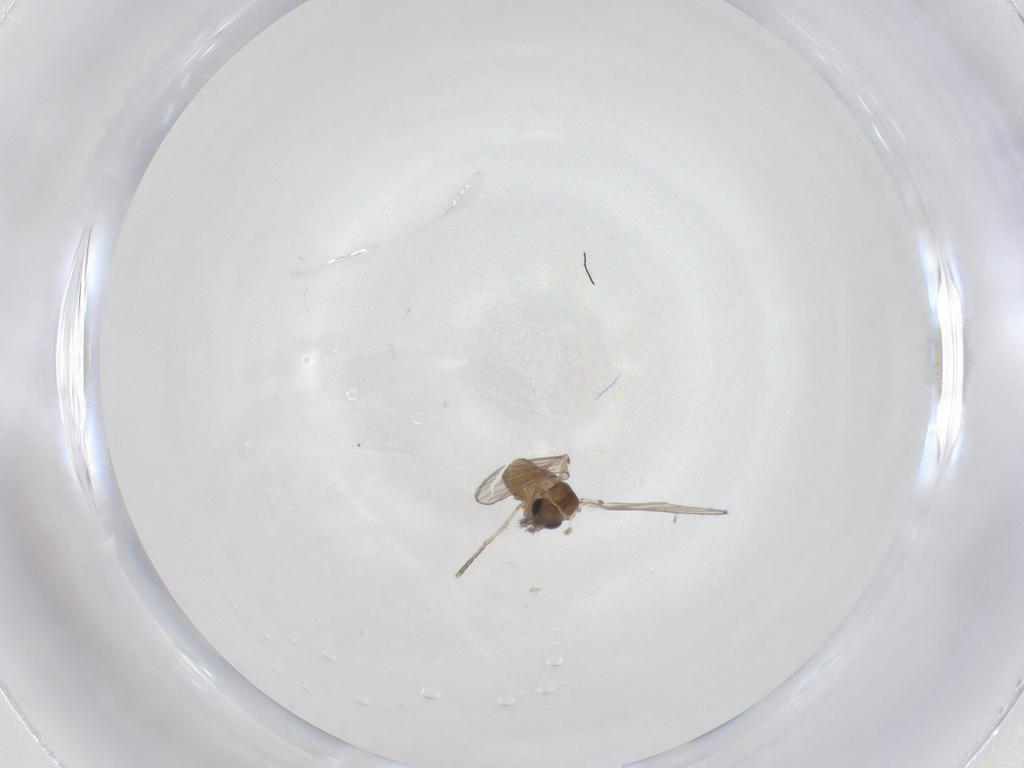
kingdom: Animalia
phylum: Arthropoda
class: Insecta
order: Diptera
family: Psychodidae
